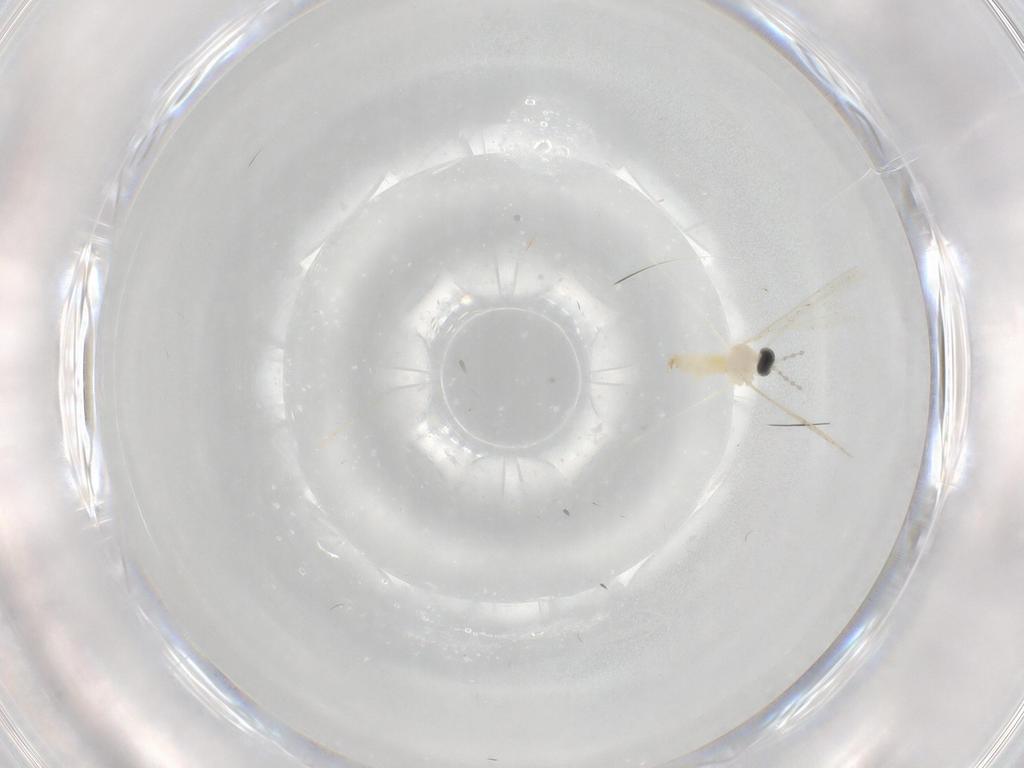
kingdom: Animalia
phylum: Arthropoda
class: Insecta
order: Diptera
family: Cecidomyiidae
